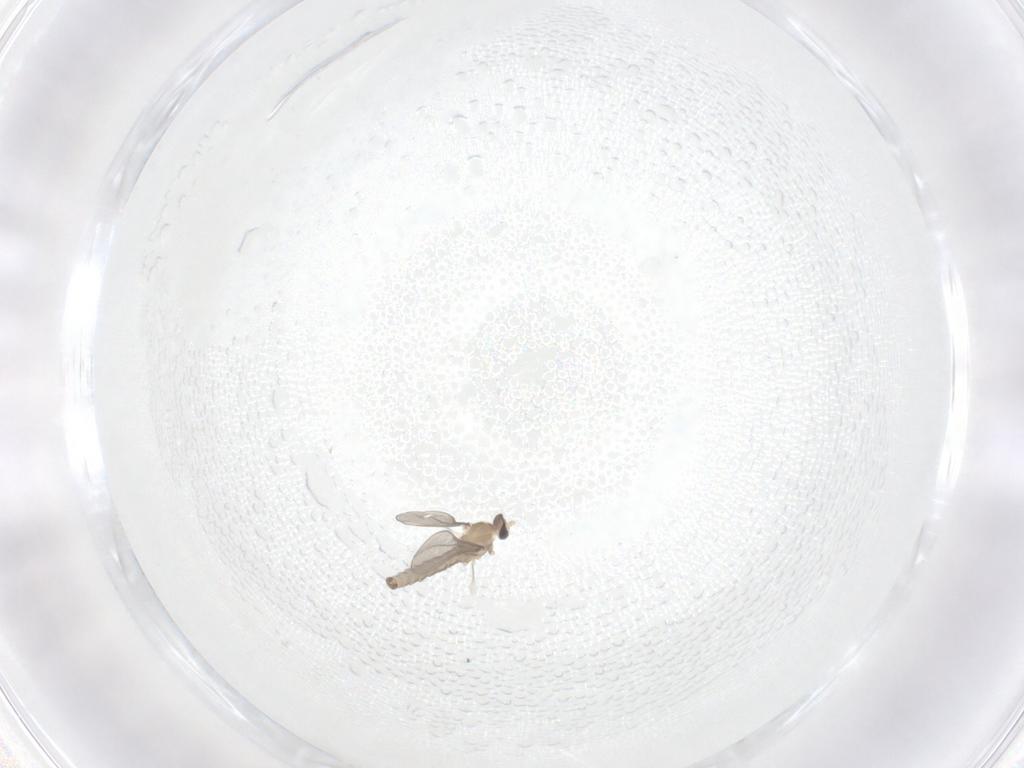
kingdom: Animalia
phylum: Arthropoda
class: Insecta
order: Diptera
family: Cecidomyiidae
